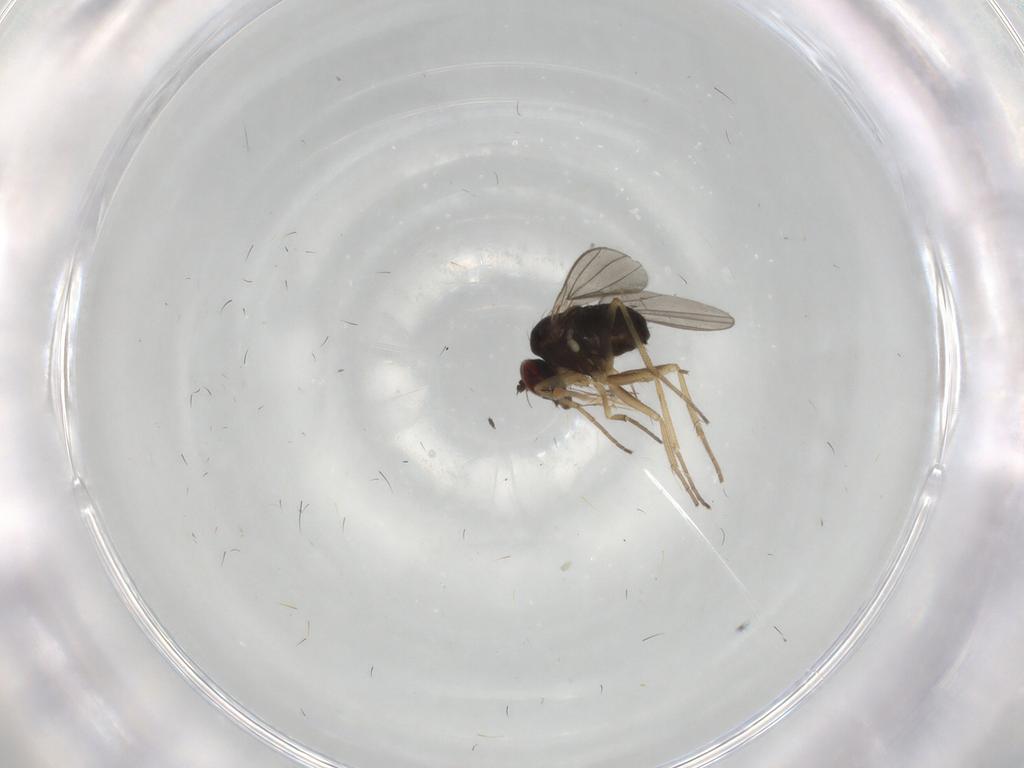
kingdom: Animalia
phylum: Arthropoda
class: Insecta
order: Diptera
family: Dolichopodidae
